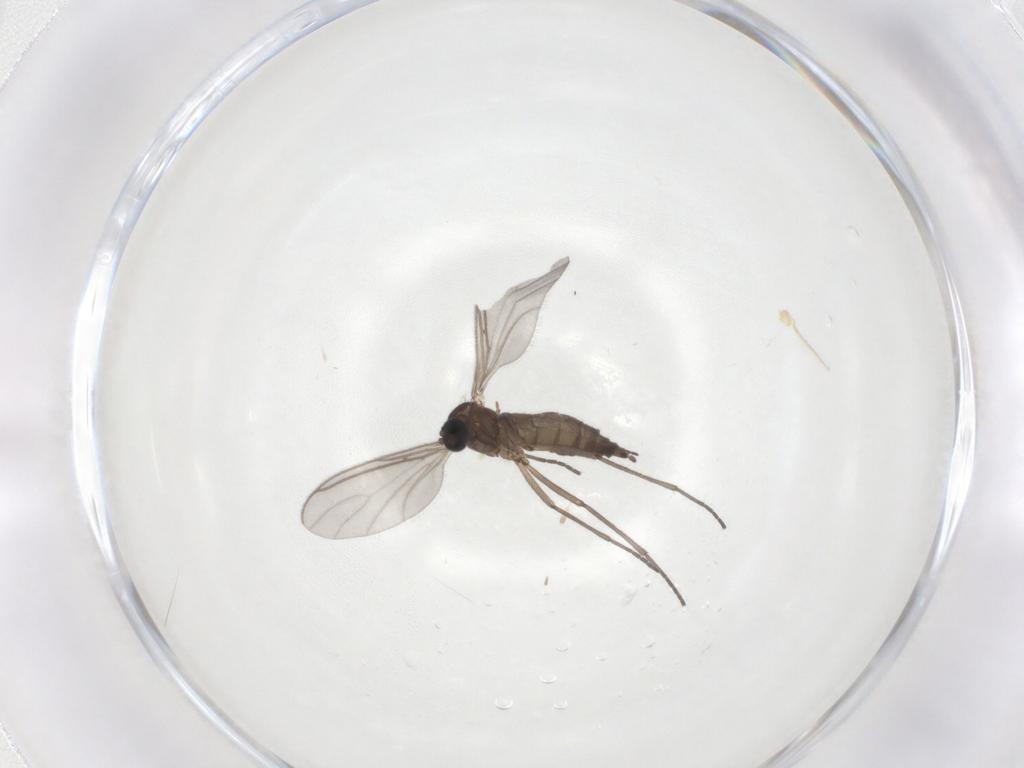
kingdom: Animalia
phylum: Arthropoda
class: Insecta
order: Diptera
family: Sciaridae
